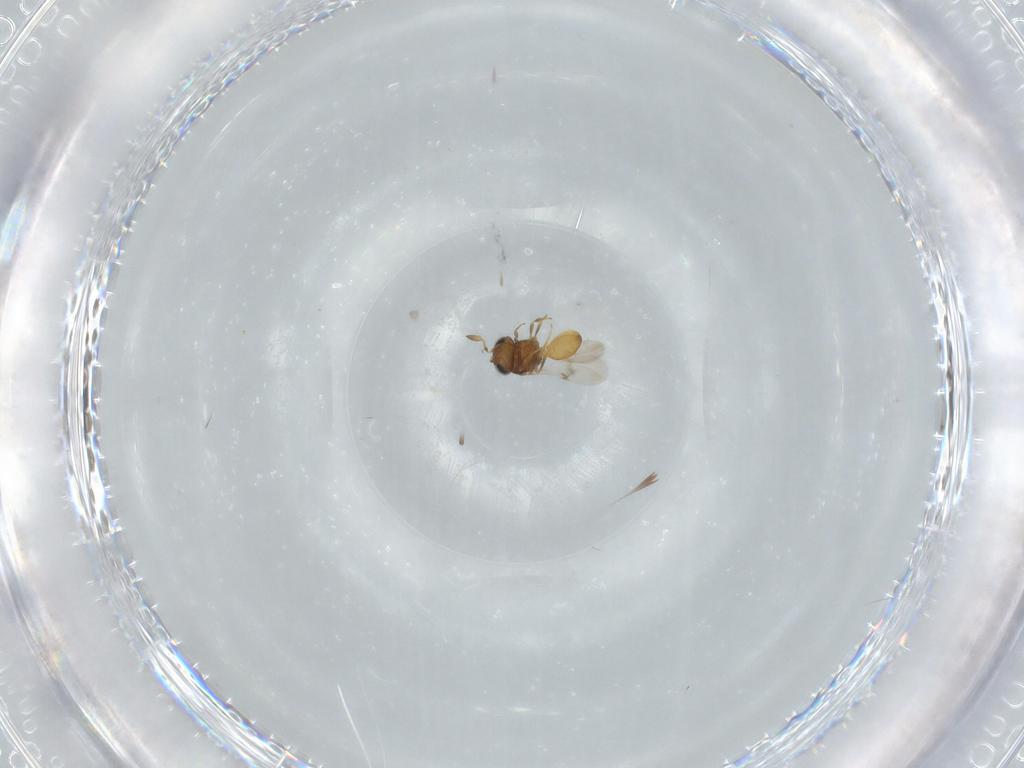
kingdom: Animalia
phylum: Arthropoda
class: Insecta
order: Hymenoptera
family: Scelionidae
